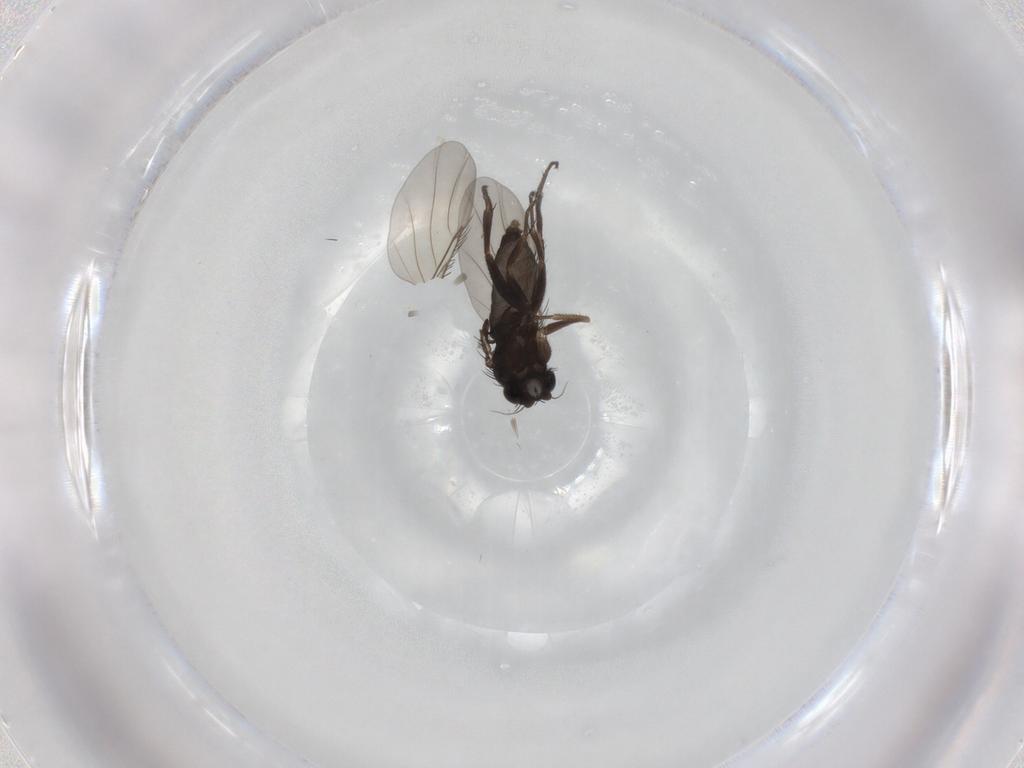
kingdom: Animalia
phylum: Arthropoda
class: Insecta
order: Diptera
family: Phoridae
